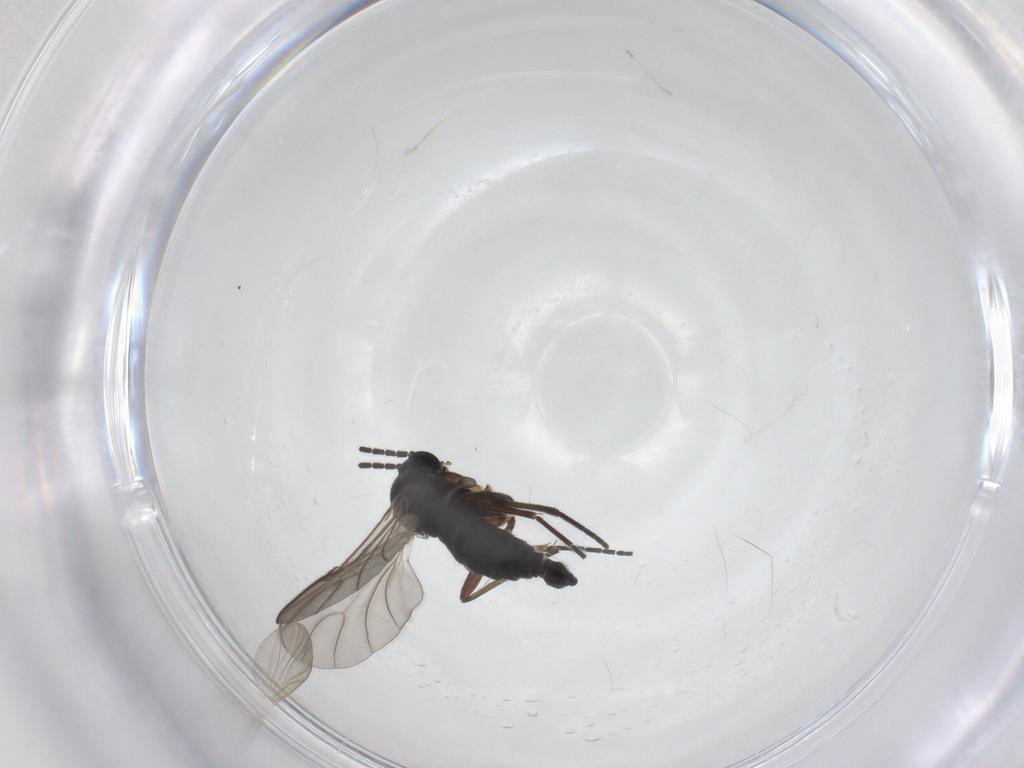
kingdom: Animalia
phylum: Arthropoda
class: Insecta
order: Diptera
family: Sciaridae
